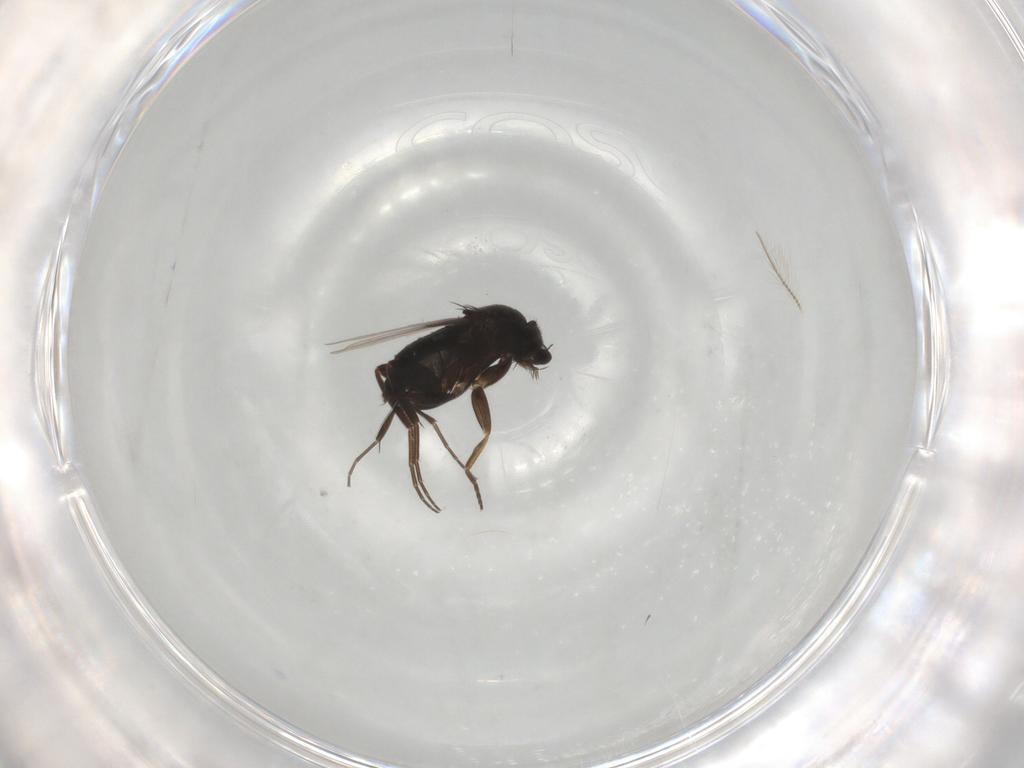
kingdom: Animalia
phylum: Arthropoda
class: Insecta
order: Diptera
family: Phoridae
